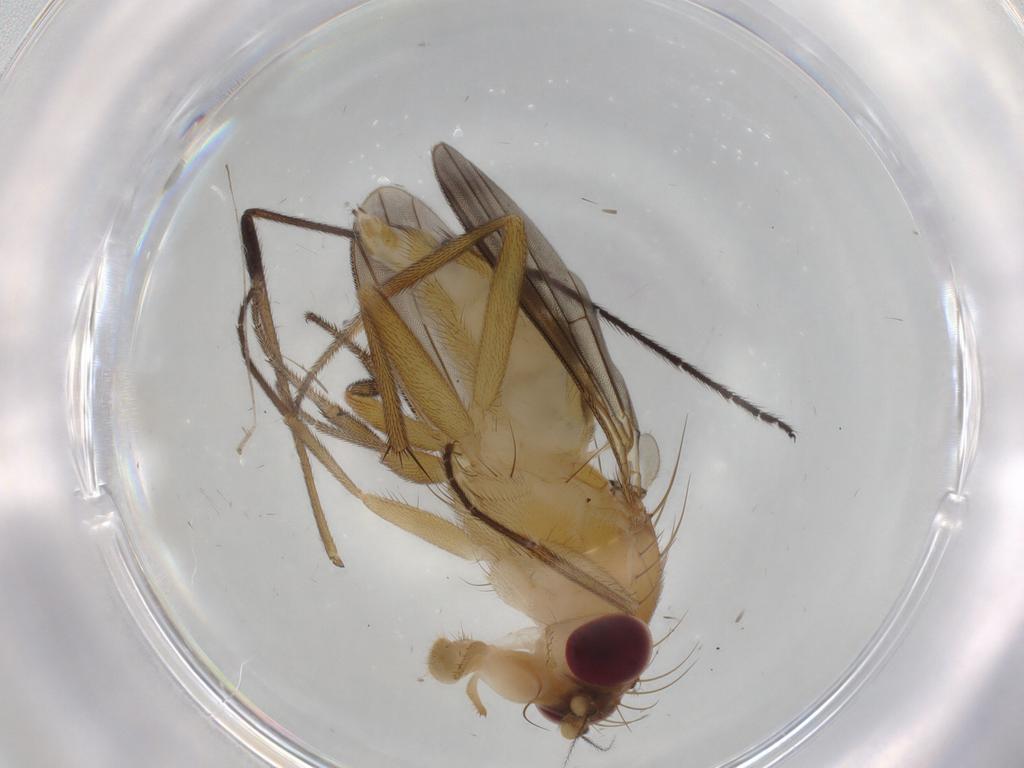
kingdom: Animalia
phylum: Arthropoda
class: Insecta
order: Diptera
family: Clusiidae
